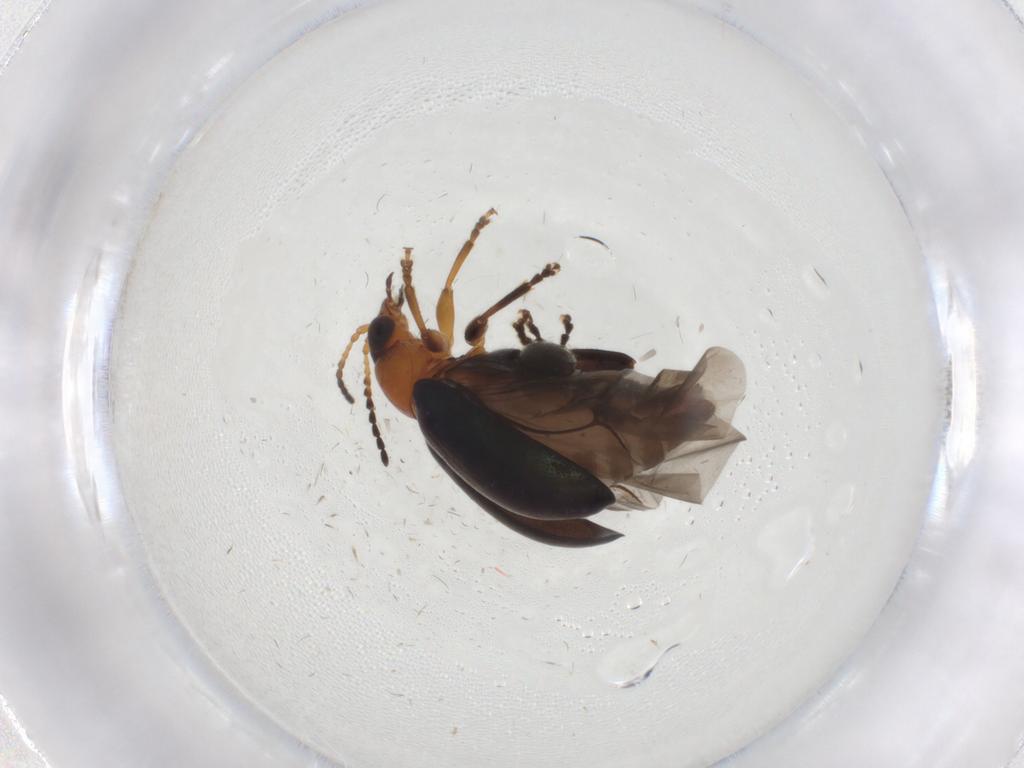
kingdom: Animalia
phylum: Arthropoda
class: Insecta
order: Coleoptera
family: Chrysomelidae
